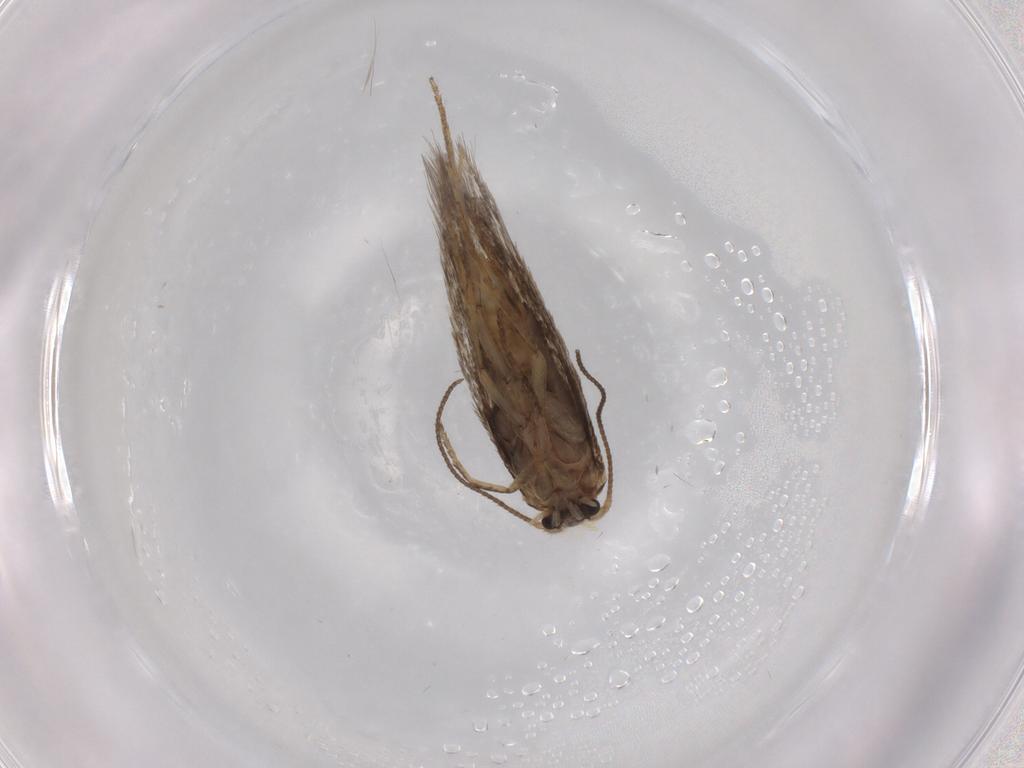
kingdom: Animalia
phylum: Arthropoda
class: Insecta
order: Lepidoptera
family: Nepticulidae
